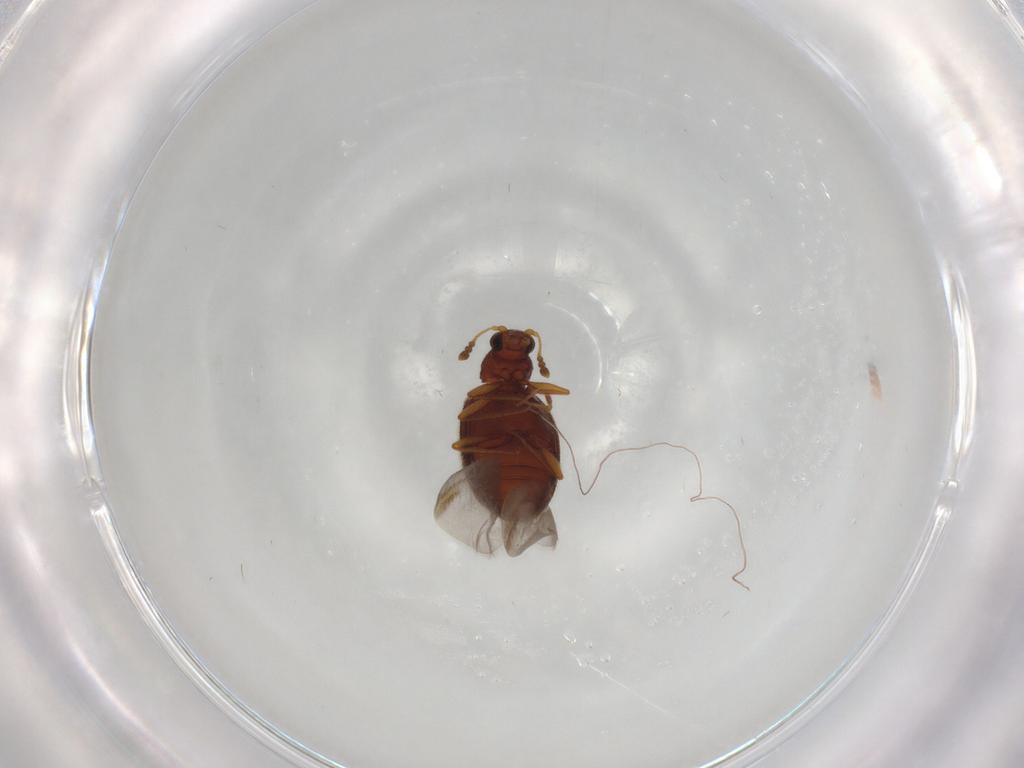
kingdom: Animalia
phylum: Arthropoda
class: Insecta
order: Coleoptera
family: Latridiidae
